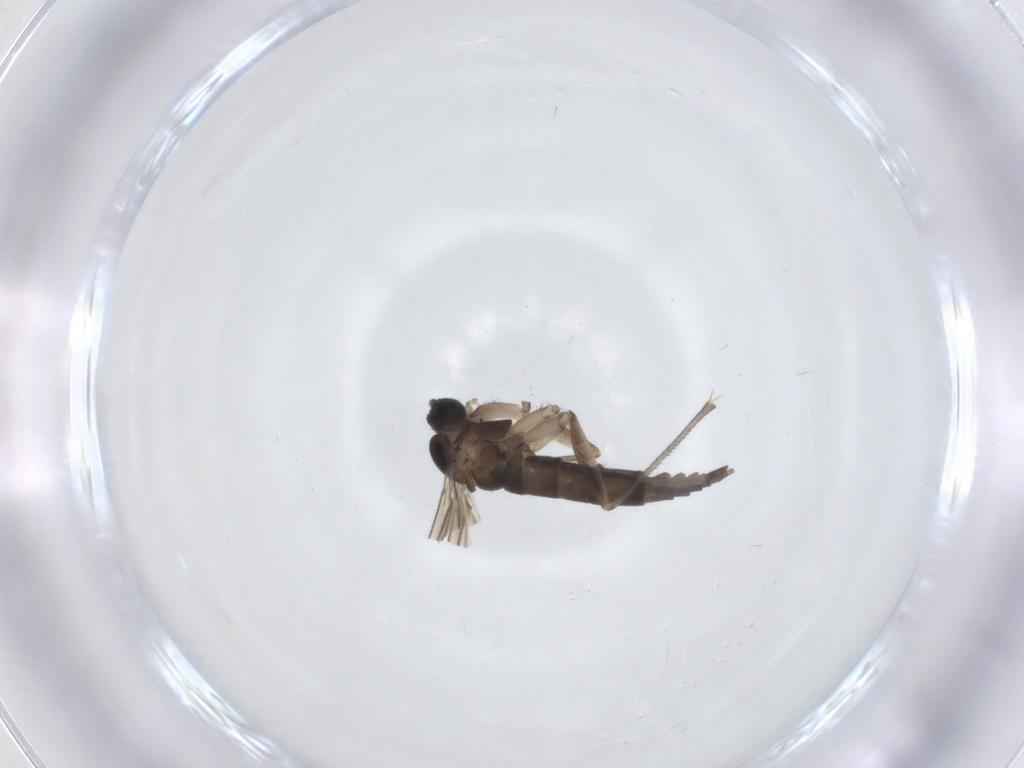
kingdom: Animalia
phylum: Arthropoda
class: Insecta
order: Diptera
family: Sciaridae
